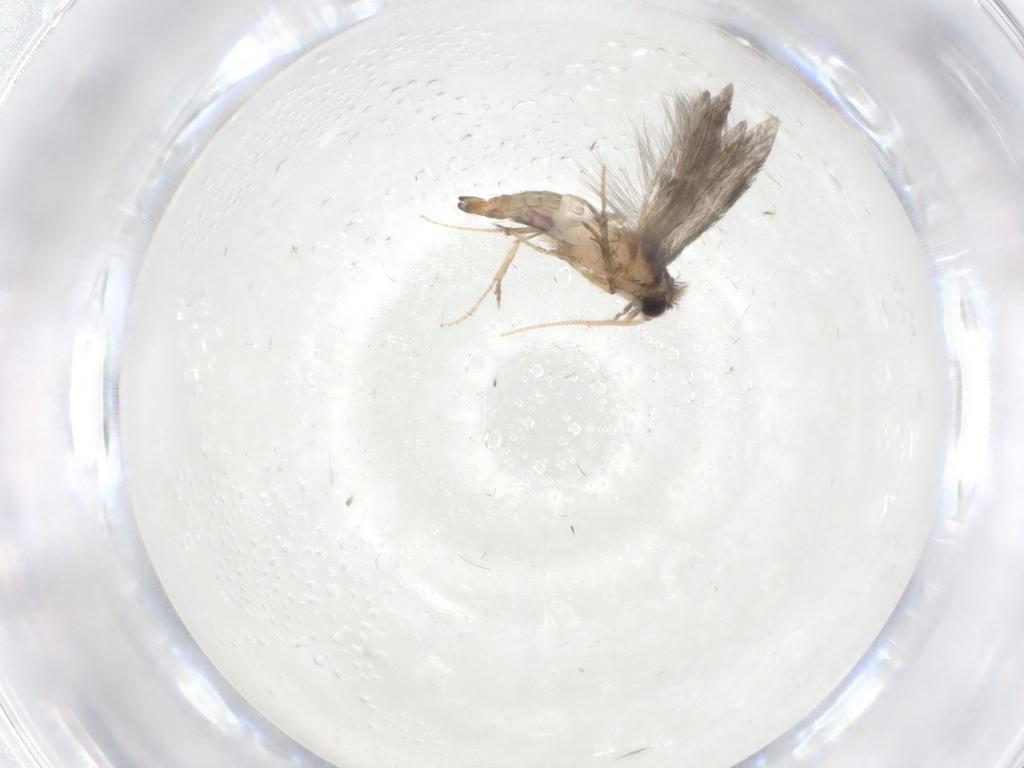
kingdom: Animalia
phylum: Arthropoda
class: Insecta
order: Trichoptera
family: Hydroptilidae
